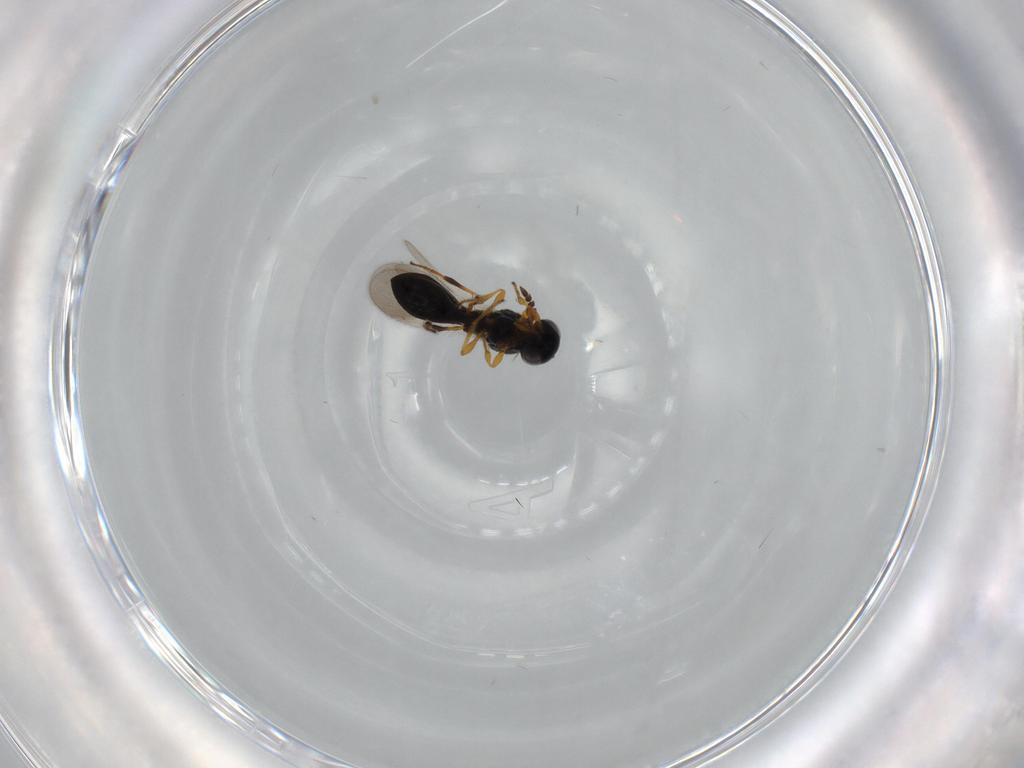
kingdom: Animalia
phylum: Arthropoda
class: Insecta
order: Hymenoptera
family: Platygastridae
